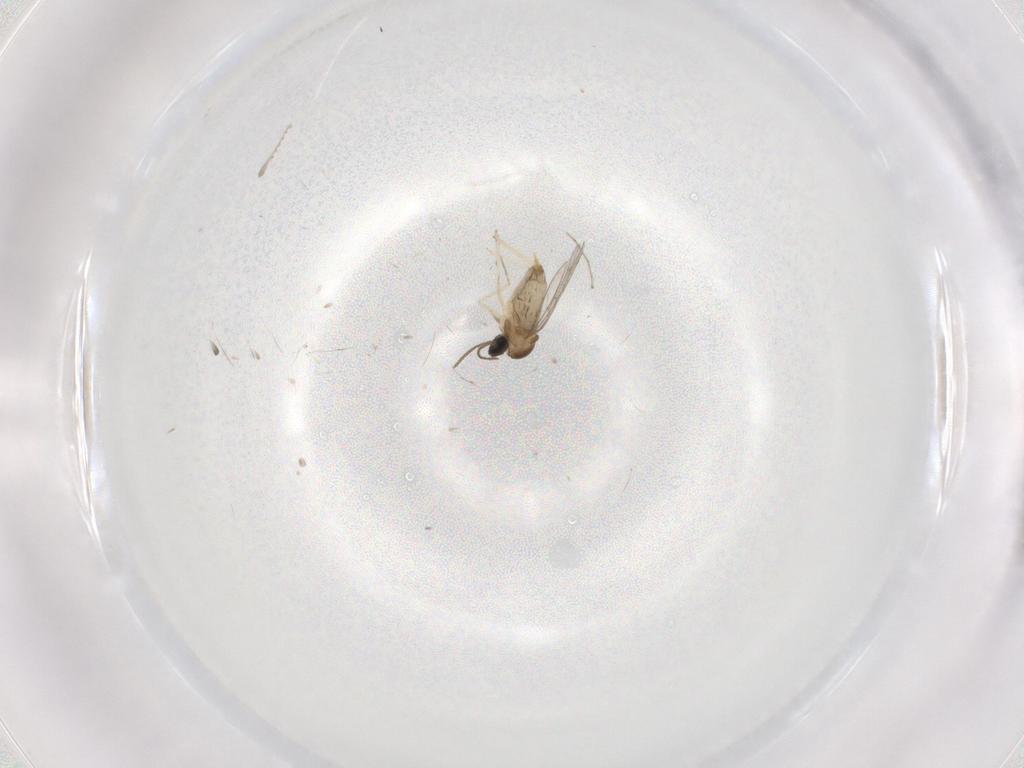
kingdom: Animalia
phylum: Arthropoda
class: Insecta
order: Diptera
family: Cecidomyiidae
